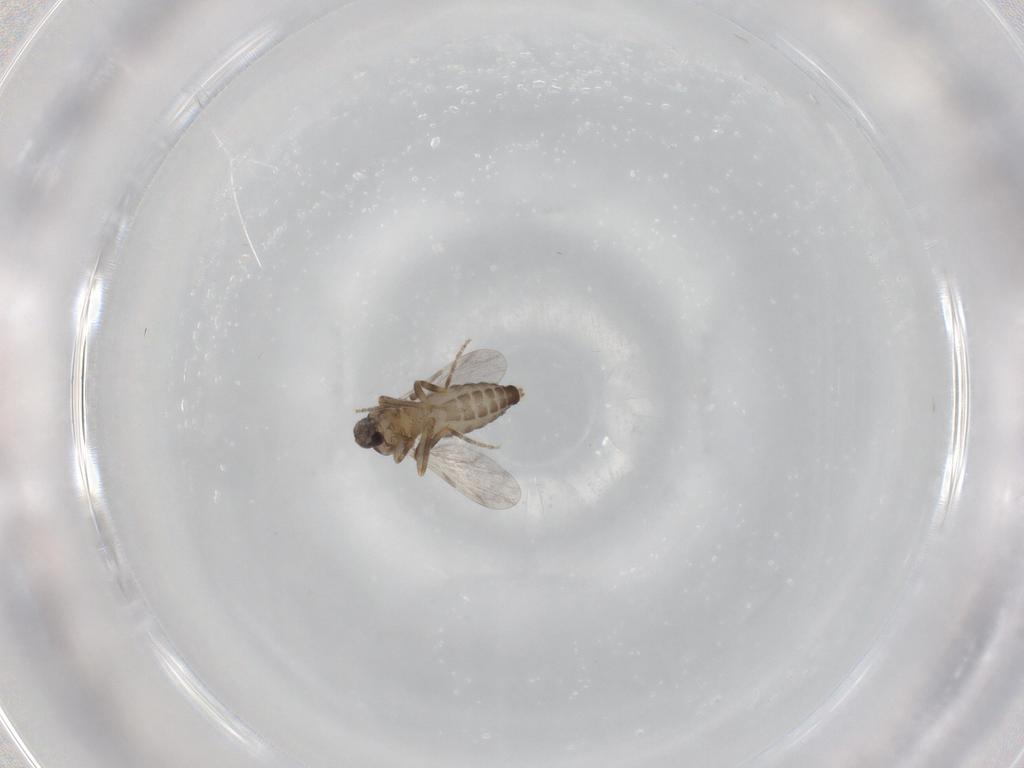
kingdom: Animalia
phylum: Arthropoda
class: Insecta
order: Diptera
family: Ceratopogonidae
